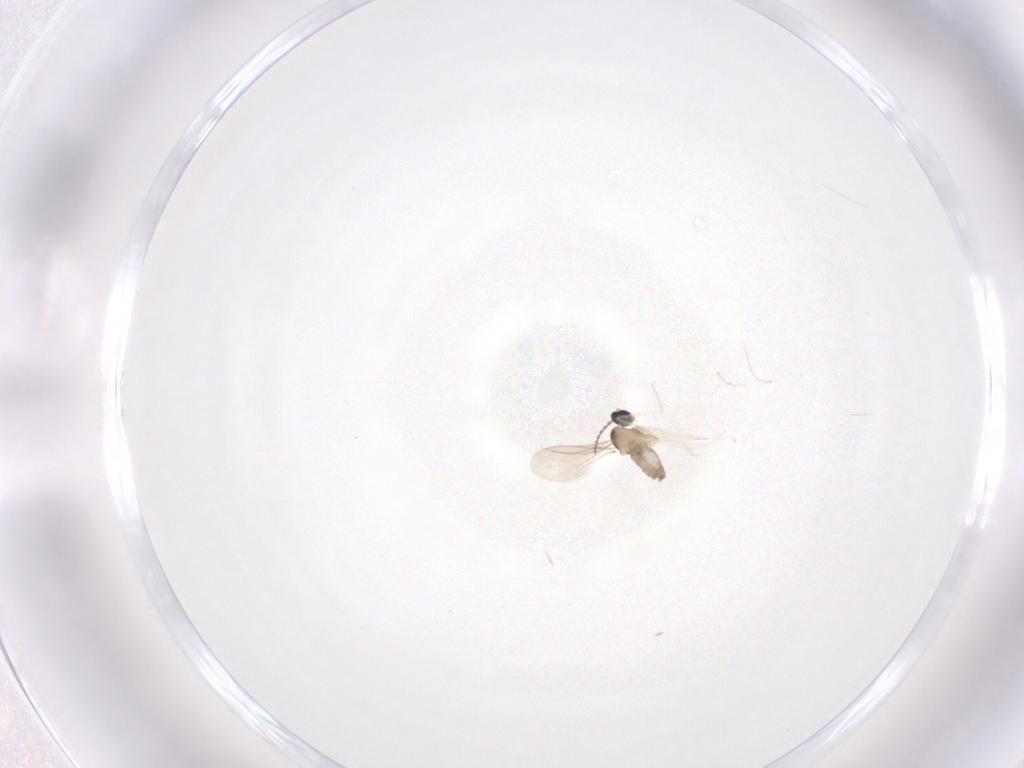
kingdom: Animalia
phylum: Arthropoda
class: Insecta
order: Diptera
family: Cecidomyiidae
